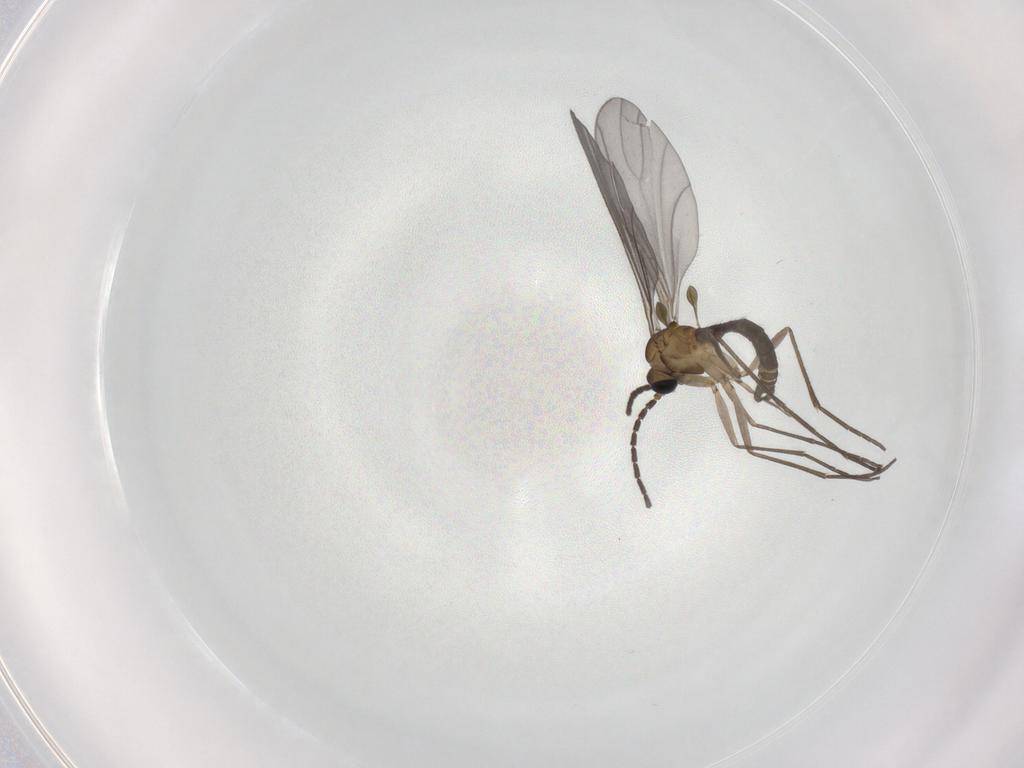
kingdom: Animalia
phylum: Arthropoda
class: Insecta
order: Diptera
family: Sciaridae
